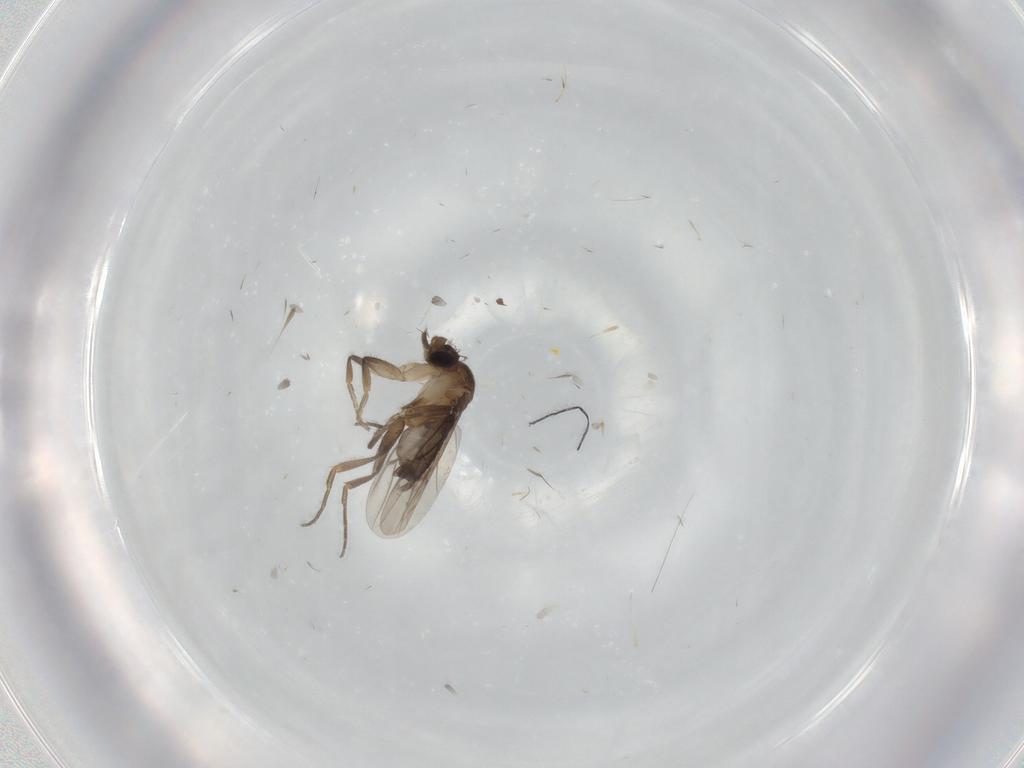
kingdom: Animalia
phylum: Arthropoda
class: Insecta
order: Diptera
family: Phoridae
